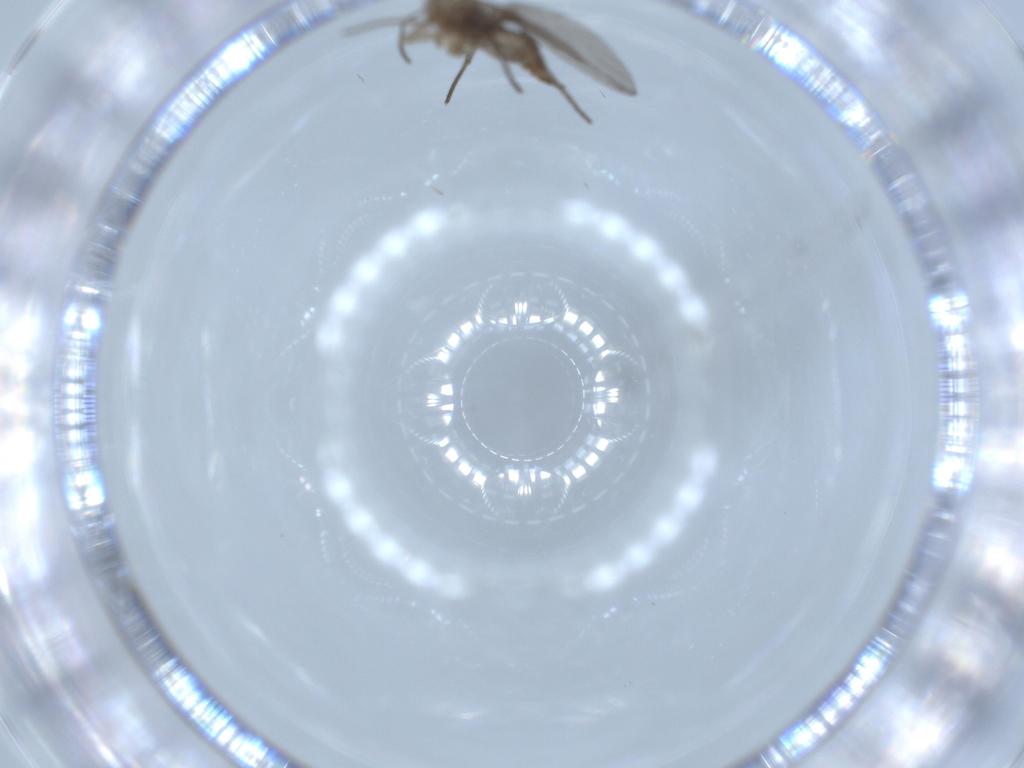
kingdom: Animalia
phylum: Arthropoda
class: Insecta
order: Diptera
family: Sciaridae
